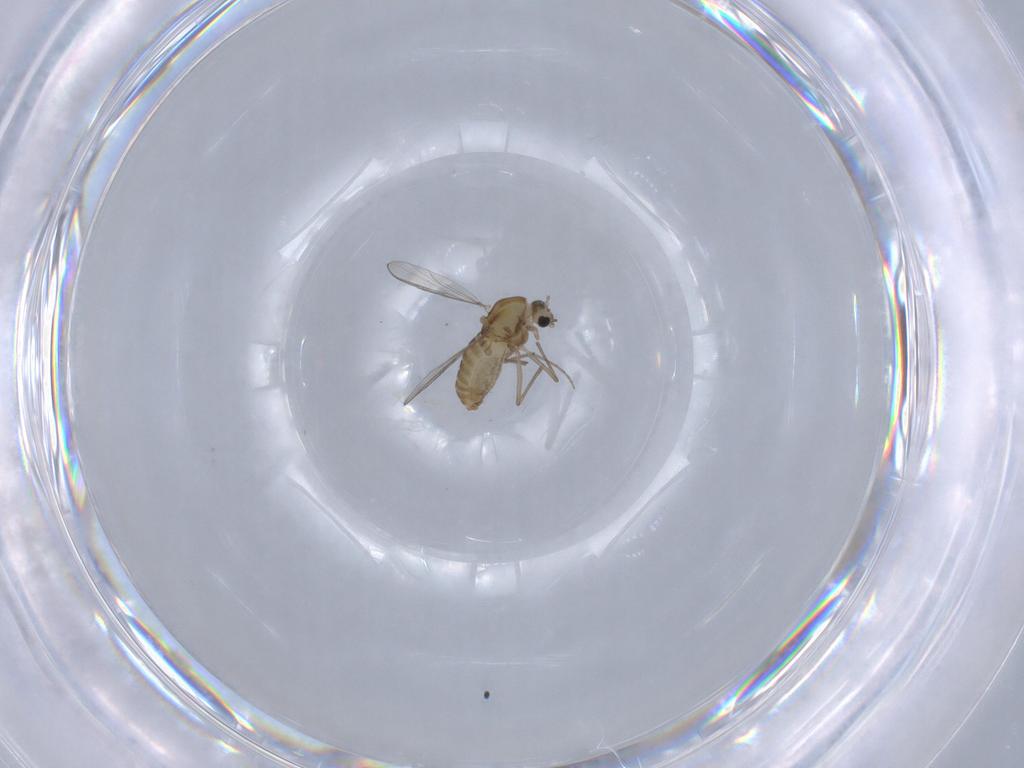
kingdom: Animalia
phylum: Arthropoda
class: Insecta
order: Diptera
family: Chironomidae
